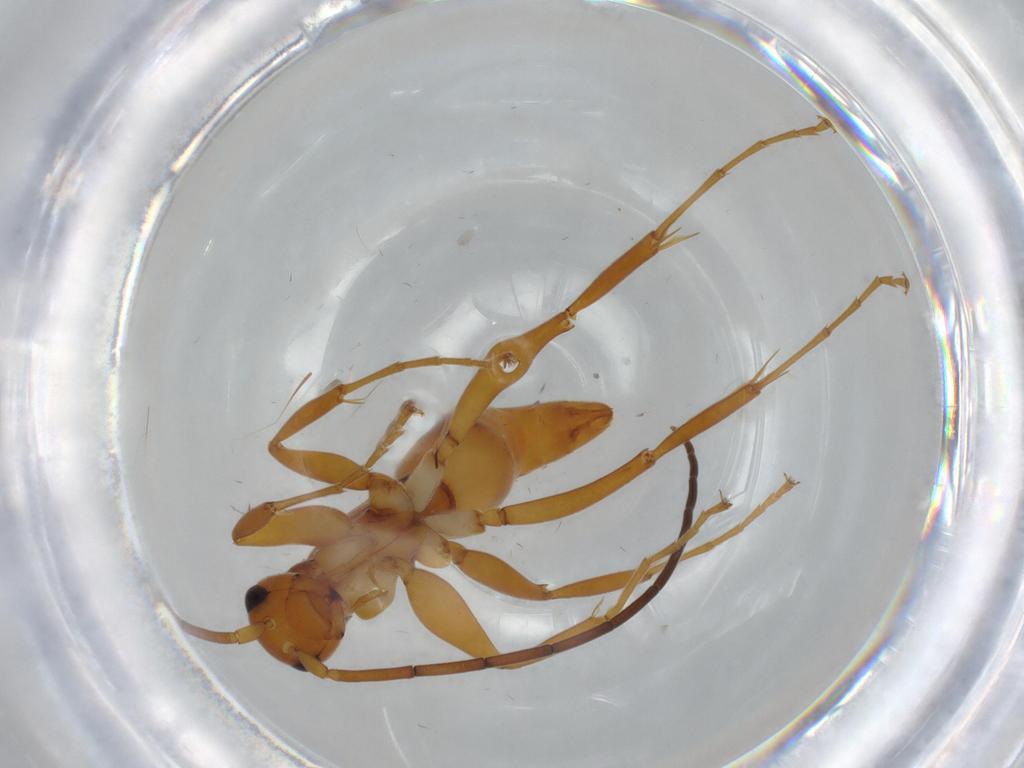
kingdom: Animalia
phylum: Arthropoda
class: Insecta
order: Hymenoptera
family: Rhopalosomatidae
